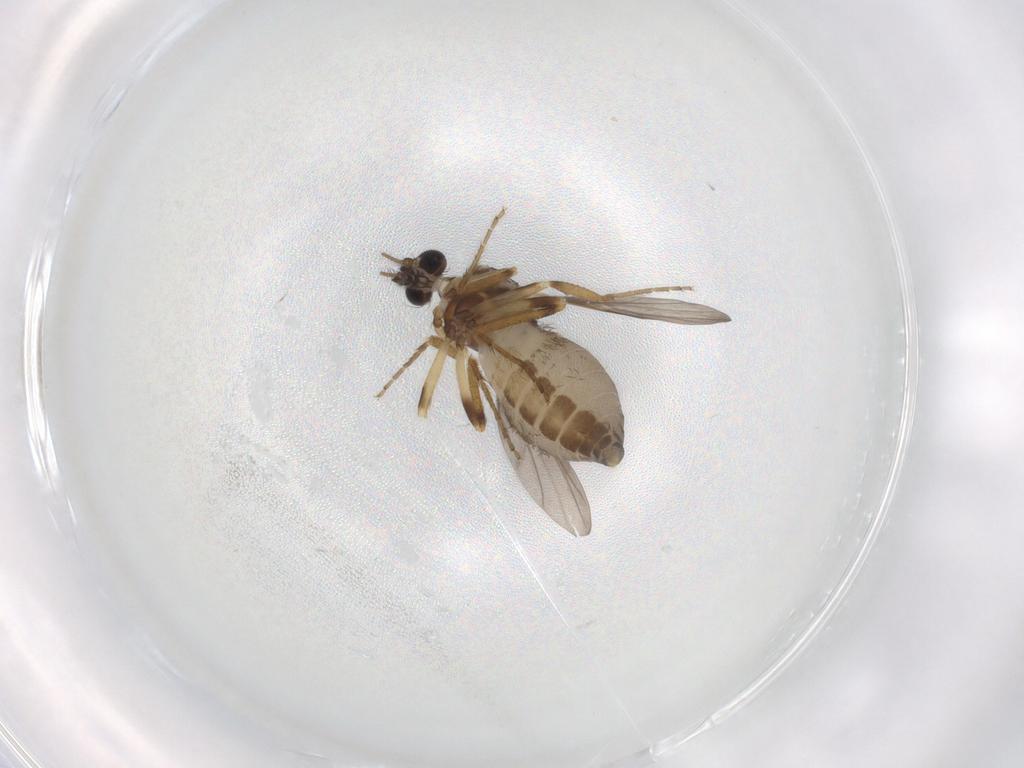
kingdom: Animalia
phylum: Arthropoda
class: Insecta
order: Diptera
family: Ceratopogonidae
